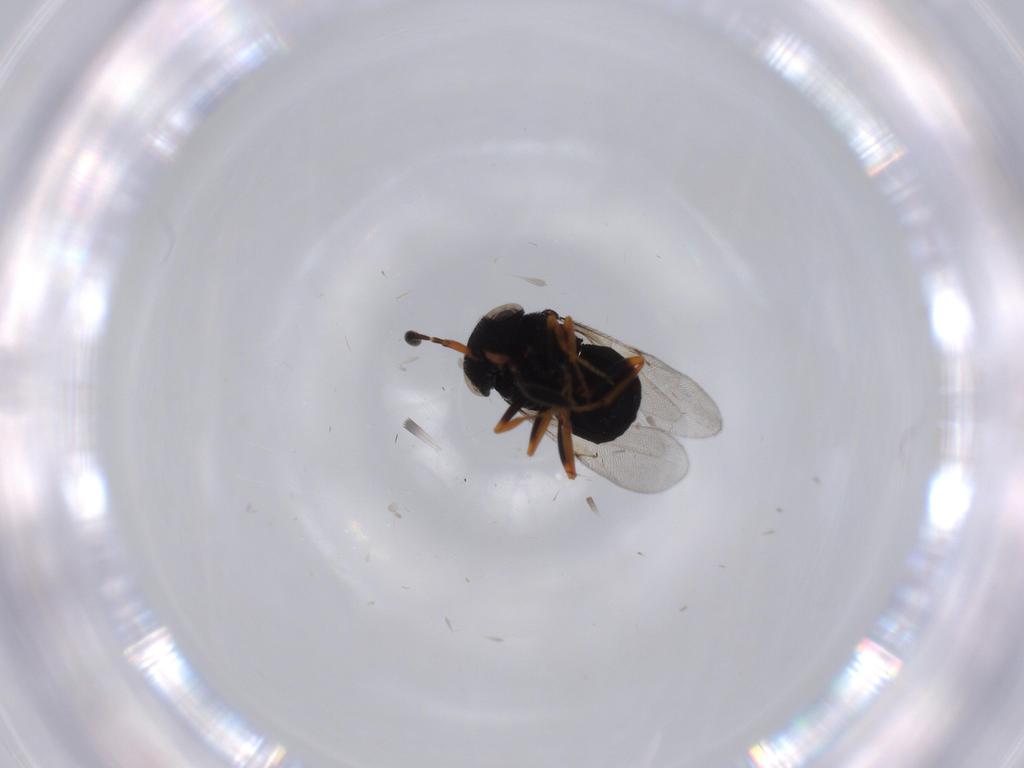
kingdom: Animalia
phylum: Arthropoda
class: Insecta
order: Hymenoptera
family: Scelionidae
